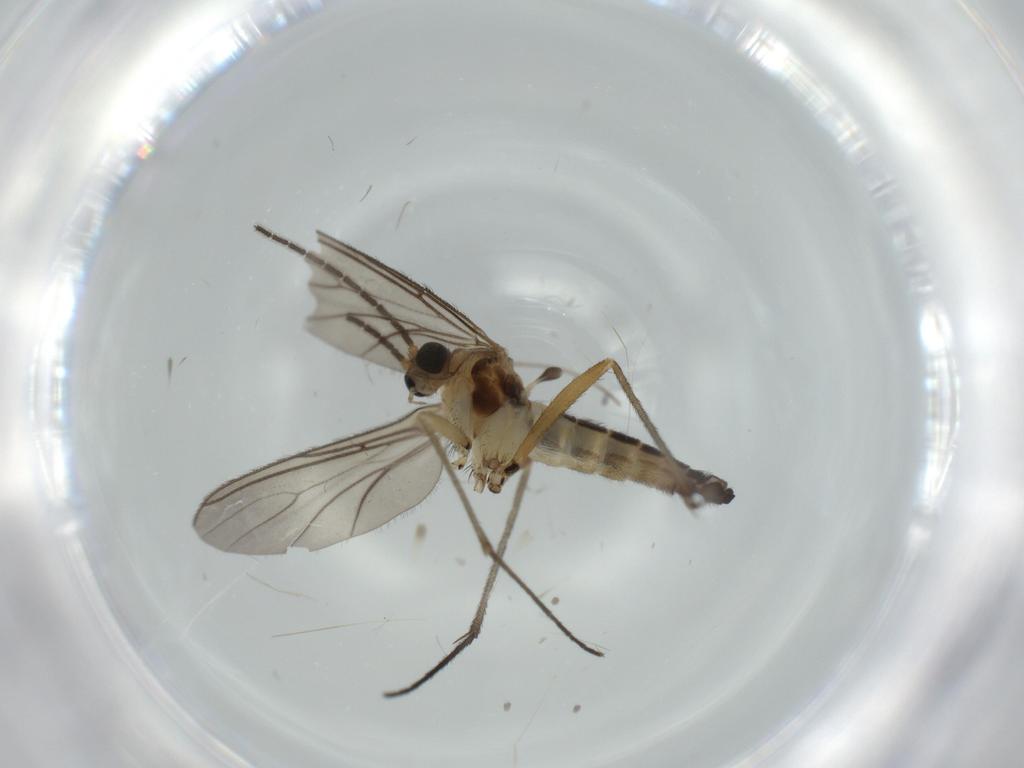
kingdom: Animalia
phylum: Arthropoda
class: Insecta
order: Diptera
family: Sciaridae
